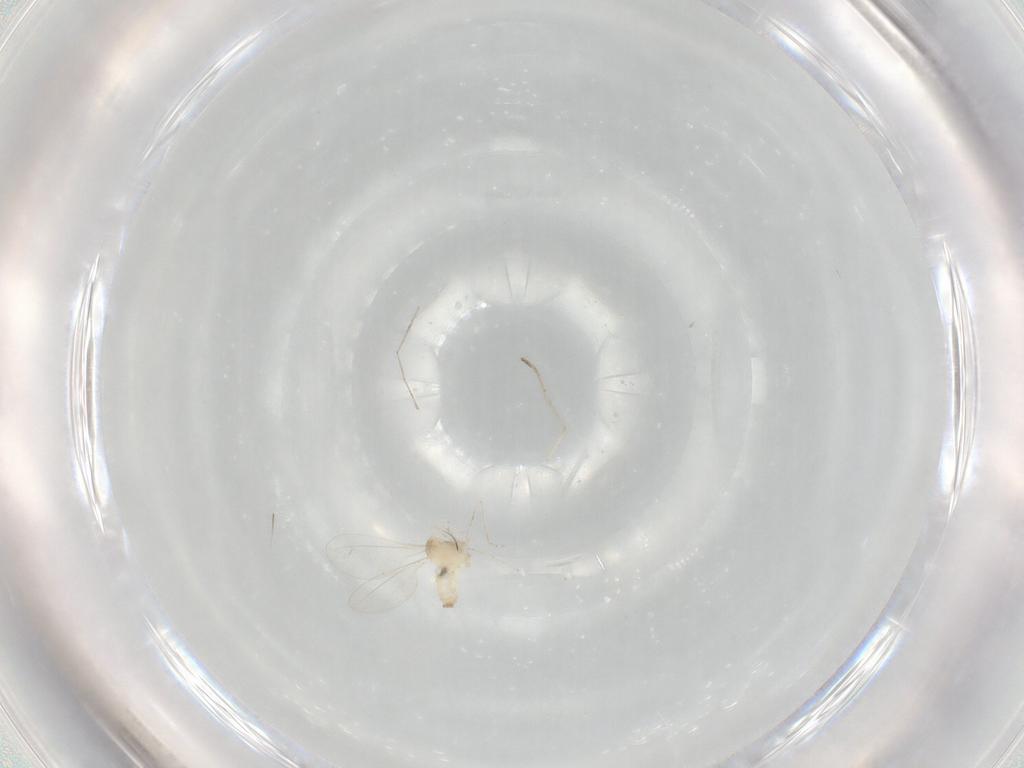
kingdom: Animalia
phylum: Arthropoda
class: Insecta
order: Diptera
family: Cecidomyiidae
